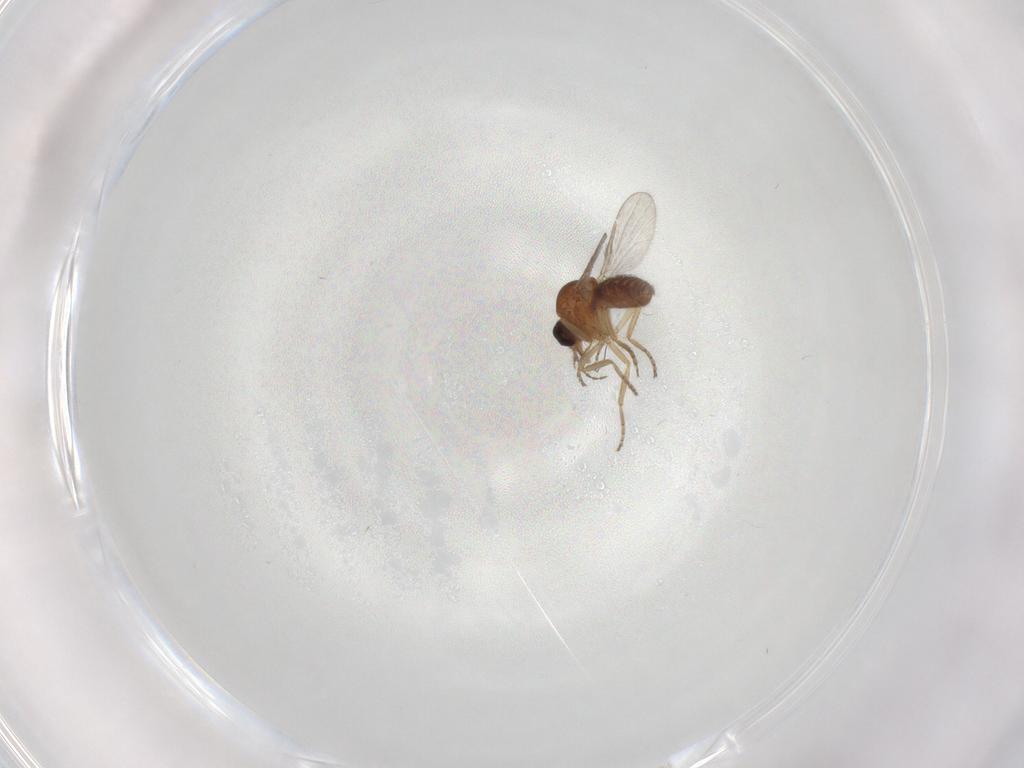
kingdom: Animalia
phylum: Arthropoda
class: Insecta
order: Diptera
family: Ceratopogonidae
